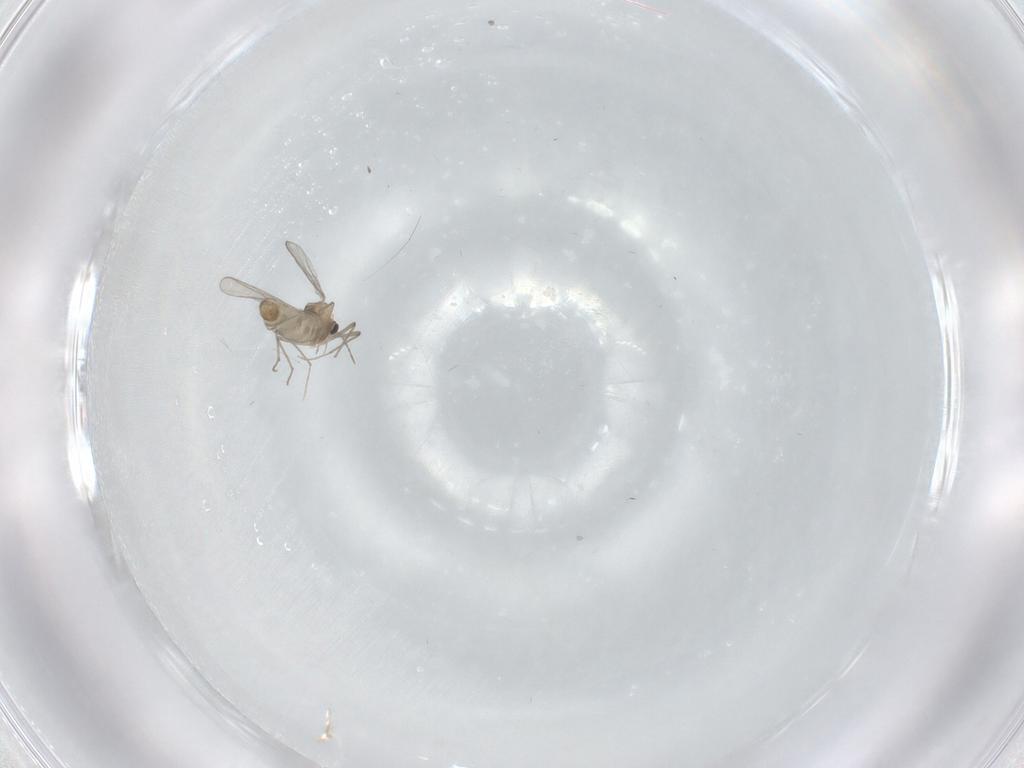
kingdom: Animalia
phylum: Arthropoda
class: Insecta
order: Diptera
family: Chironomidae
